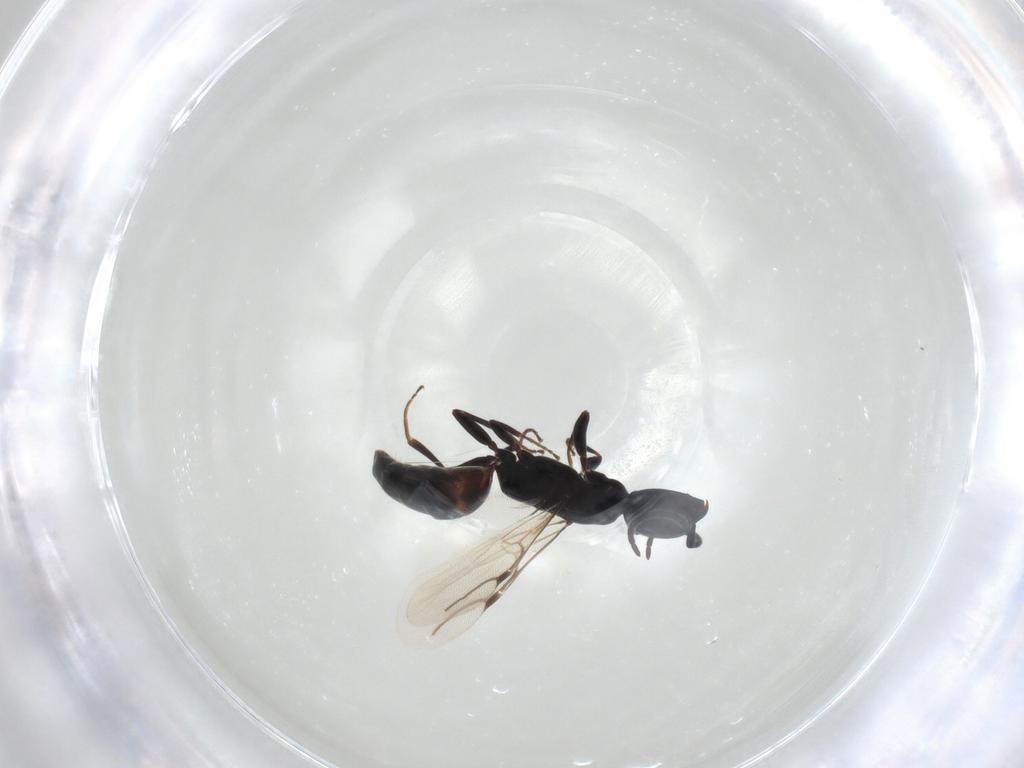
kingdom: Animalia
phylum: Arthropoda
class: Insecta
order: Hymenoptera
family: Bethylidae
